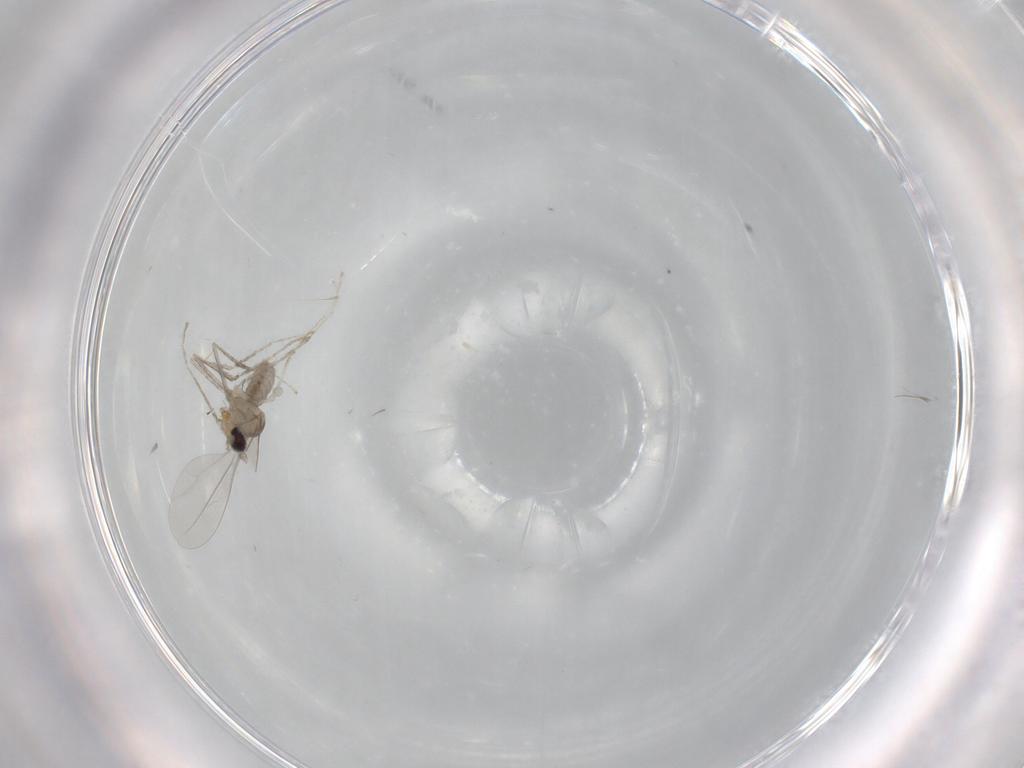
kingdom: Animalia
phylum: Arthropoda
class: Insecta
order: Diptera
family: Cecidomyiidae
